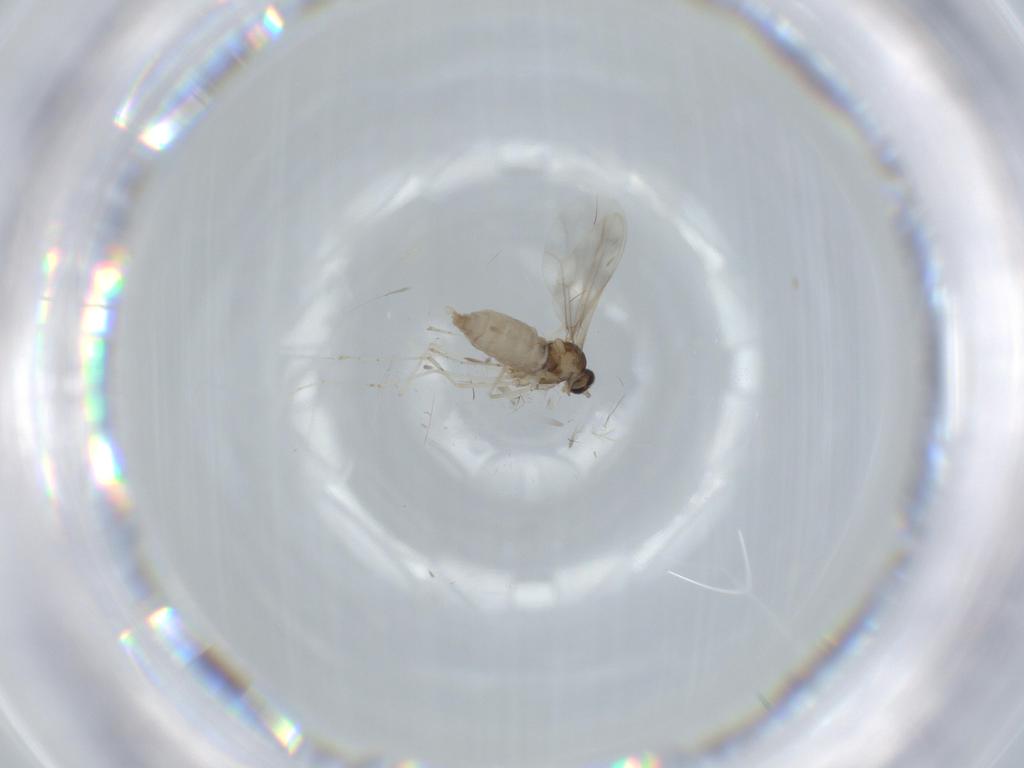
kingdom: Animalia
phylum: Arthropoda
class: Insecta
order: Diptera
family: Cecidomyiidae
